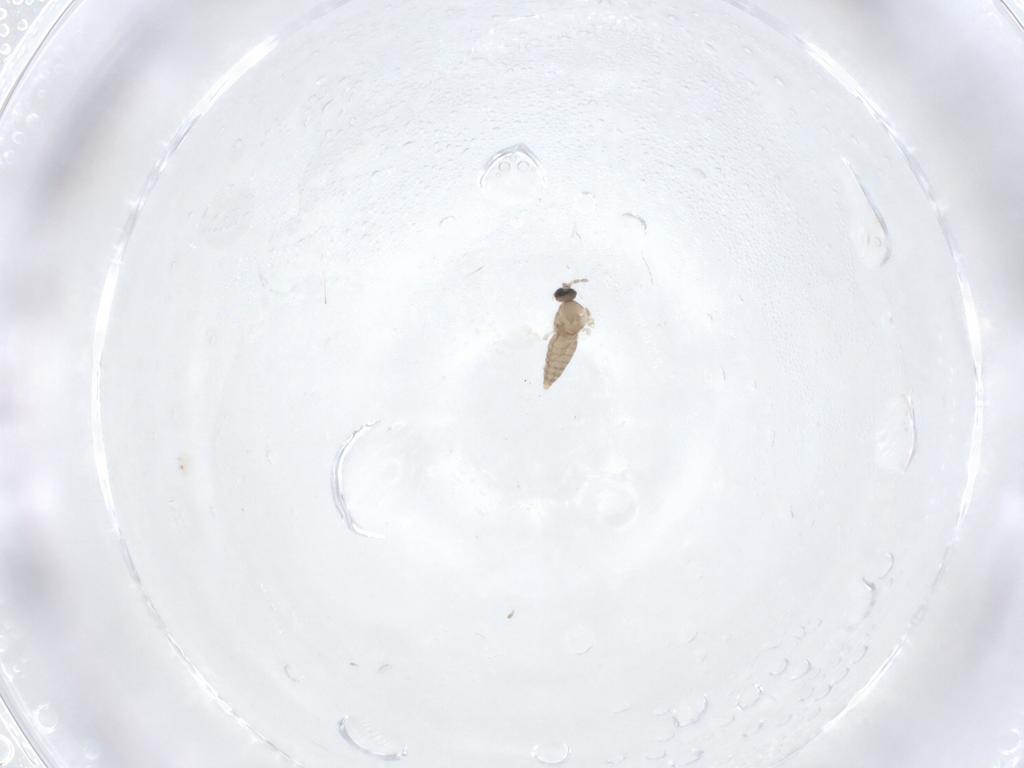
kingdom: Animalia
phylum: Arthropoda
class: Insecta
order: Diptera
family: Cecidomyiidae
